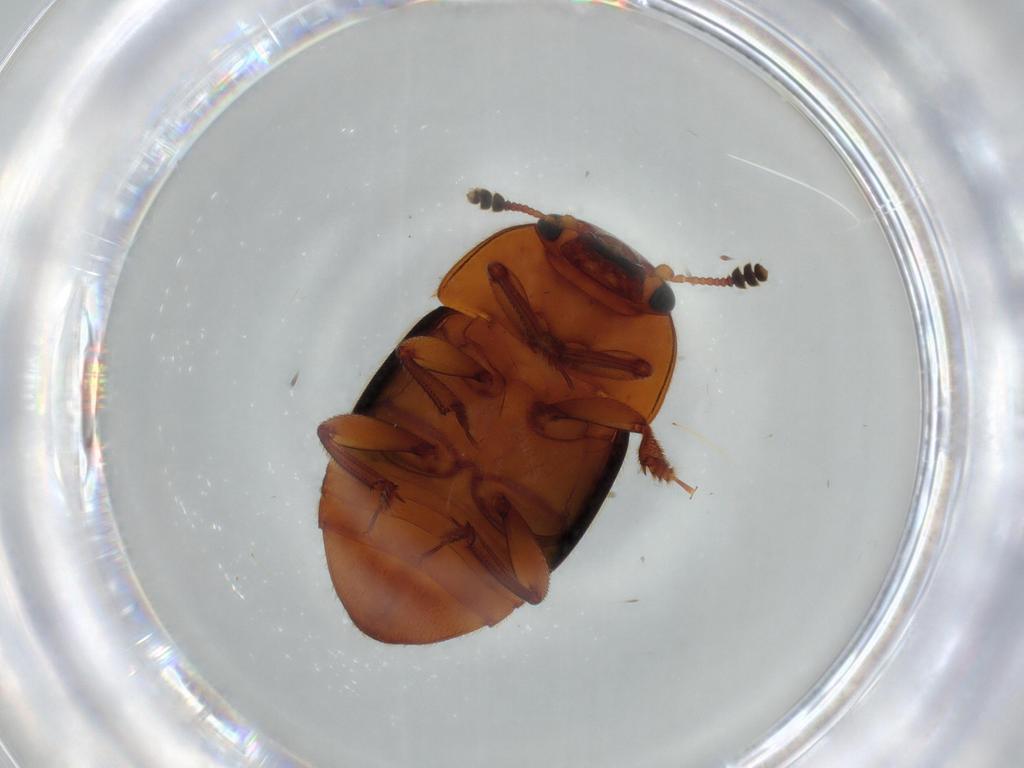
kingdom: Animalia
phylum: Arthropoda
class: Insecta
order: Coleoptera
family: Nitidulidae
